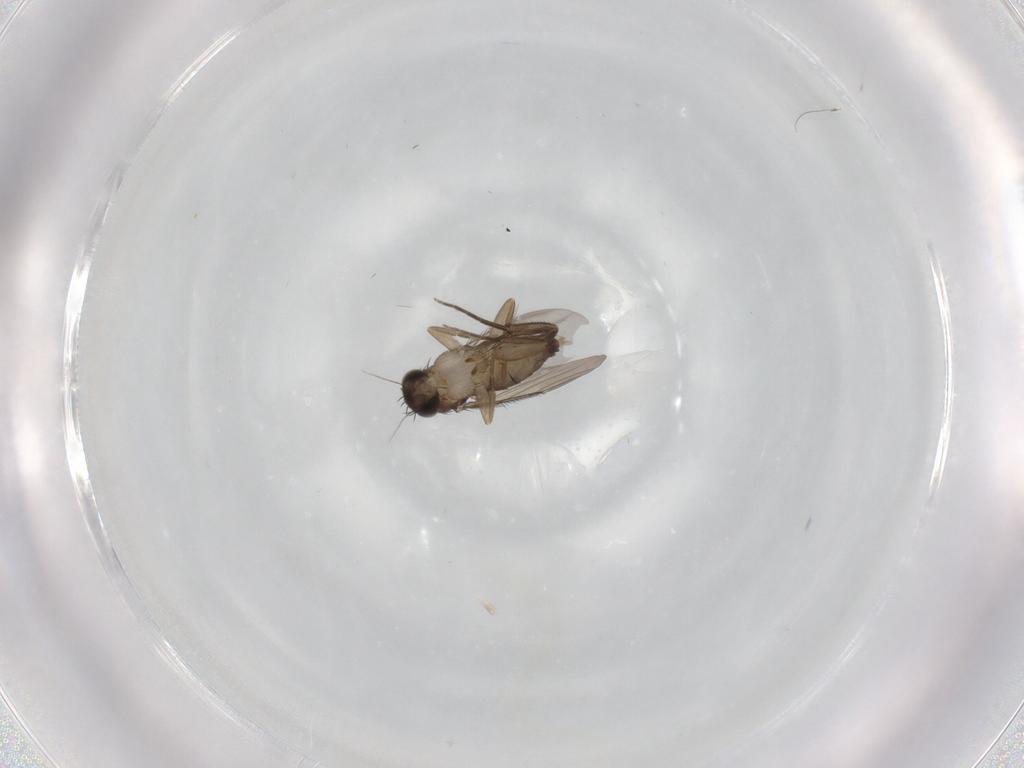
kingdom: Animalia
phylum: Arthropoda
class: Insecta
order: Diptera
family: Phoridae
